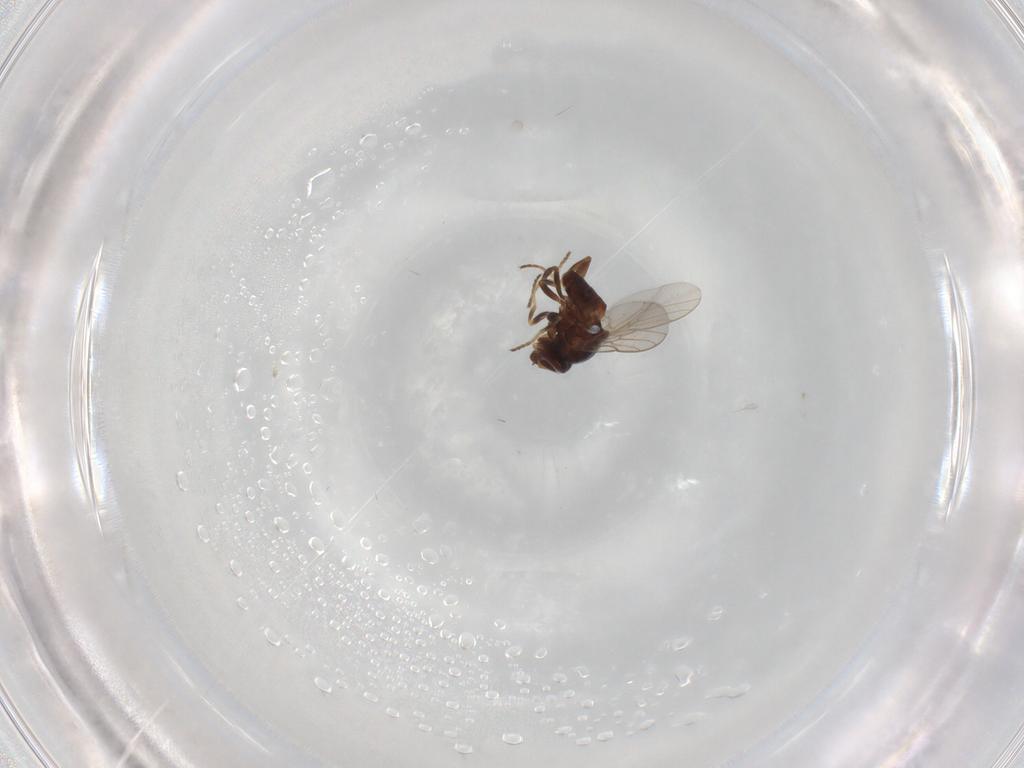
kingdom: Animalia
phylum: Arthropoda
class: Insecta
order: Diptera
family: Chloropidae
